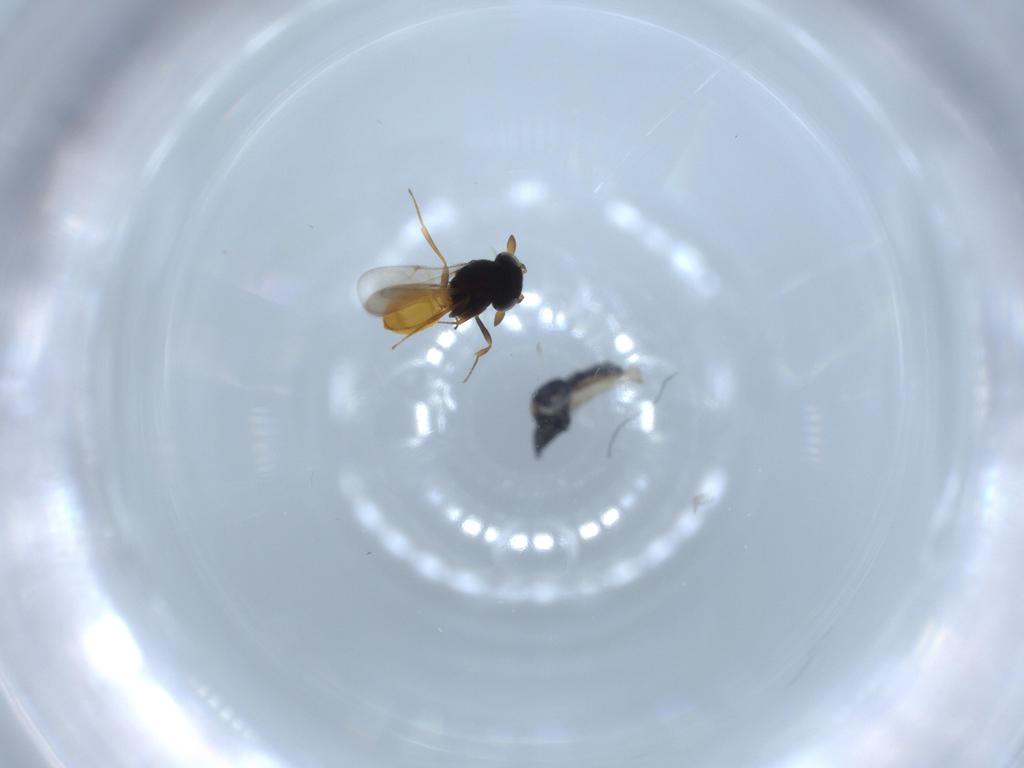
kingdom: Animalia
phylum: Arthropoda
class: Insecta
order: Hymenoptera
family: Scelionidae
